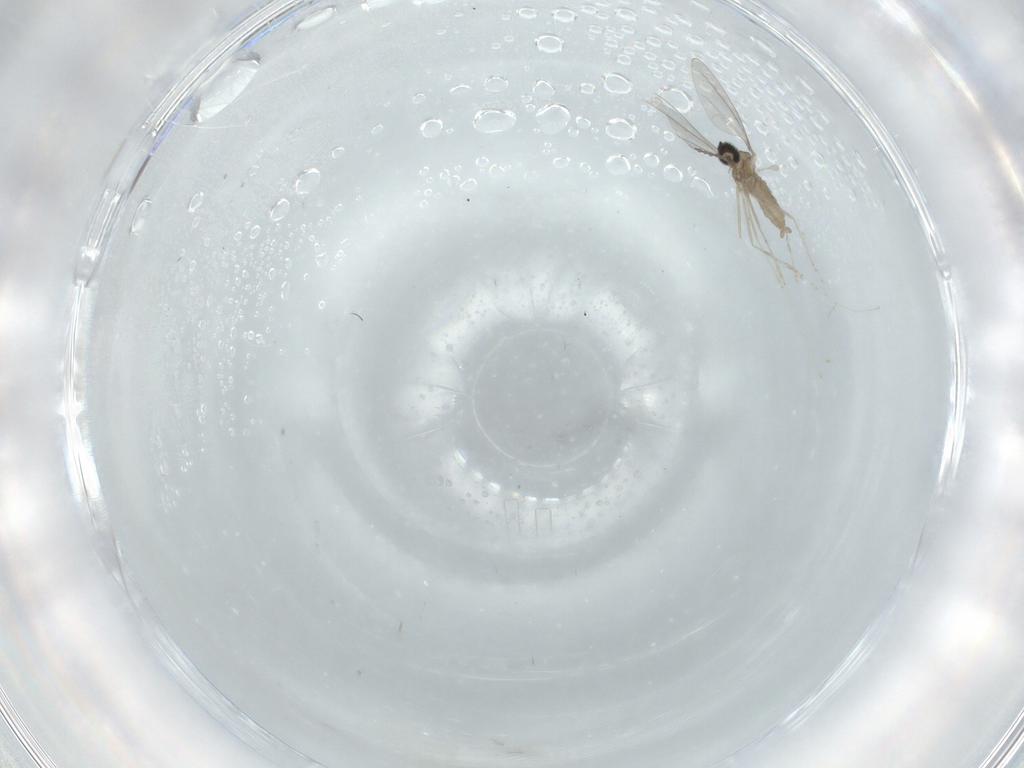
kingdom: Animalia
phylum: Arthropoda
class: Insecta
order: Diptera
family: Cecidomyiidae
